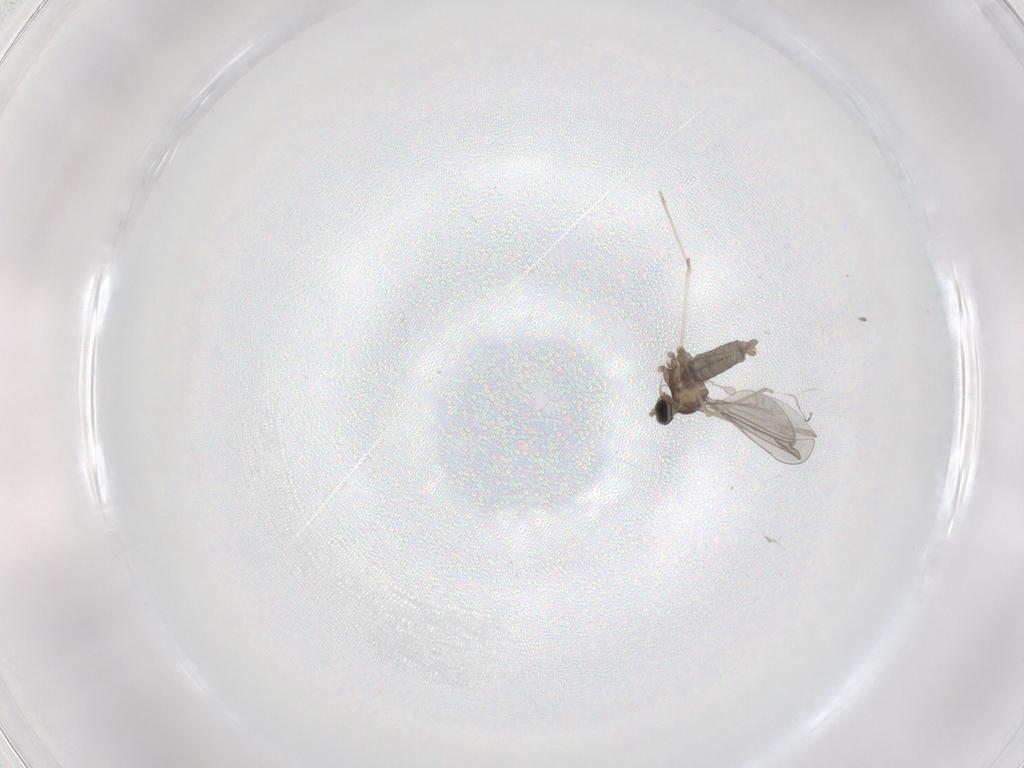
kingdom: Animalia
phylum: Arthropoda
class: Insecta
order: Diptera
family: Cecidomyiidae
